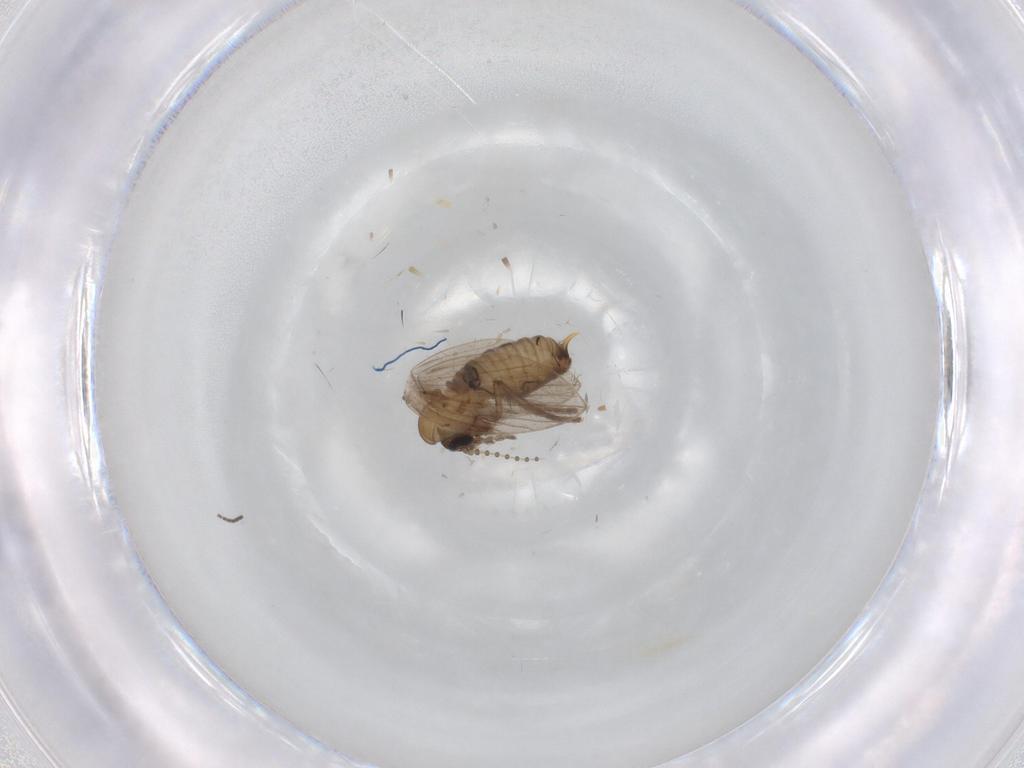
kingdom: Animalia
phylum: Arthropoda
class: Insecta
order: Diptera
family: Psychodidae
